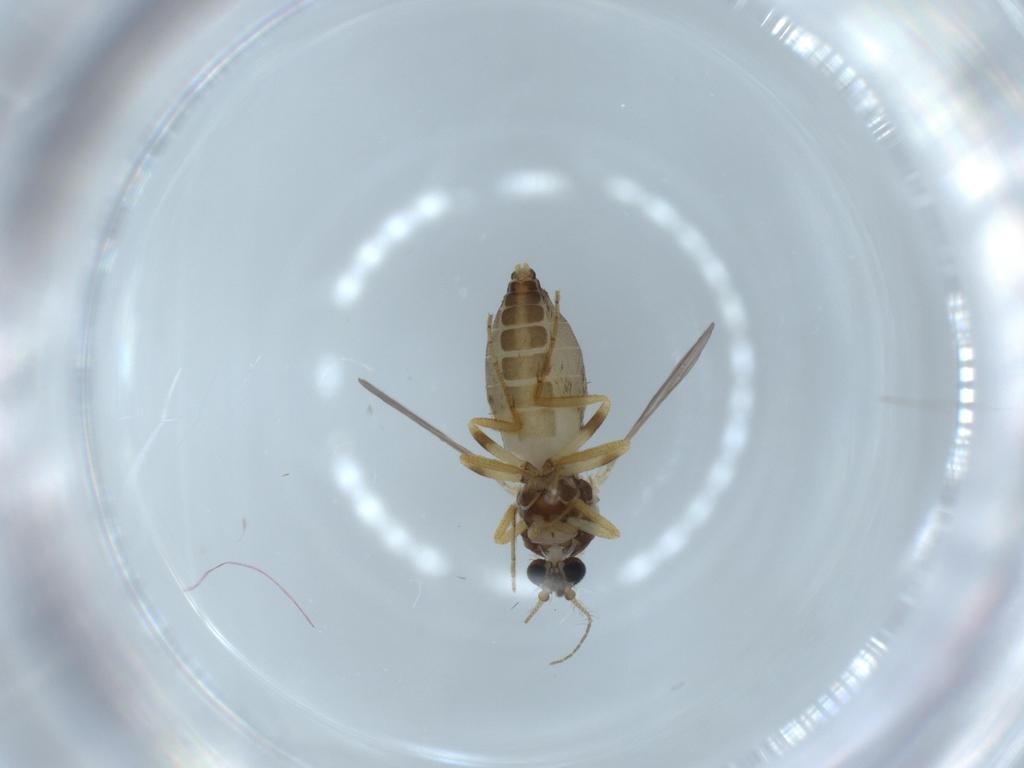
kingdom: Animalia
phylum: Arthropoda
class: Insecta
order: Diptera
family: Ceratopogonidae
